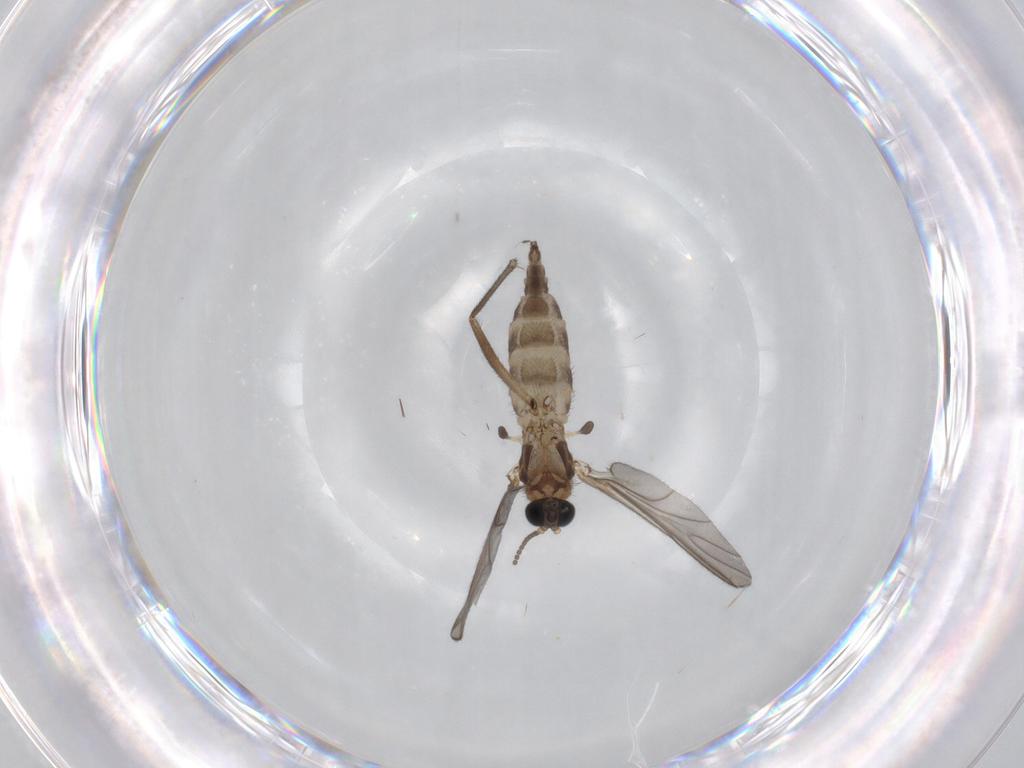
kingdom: Animalia
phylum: Arthropoda
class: Insecta
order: Diptera
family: Sciaridae
